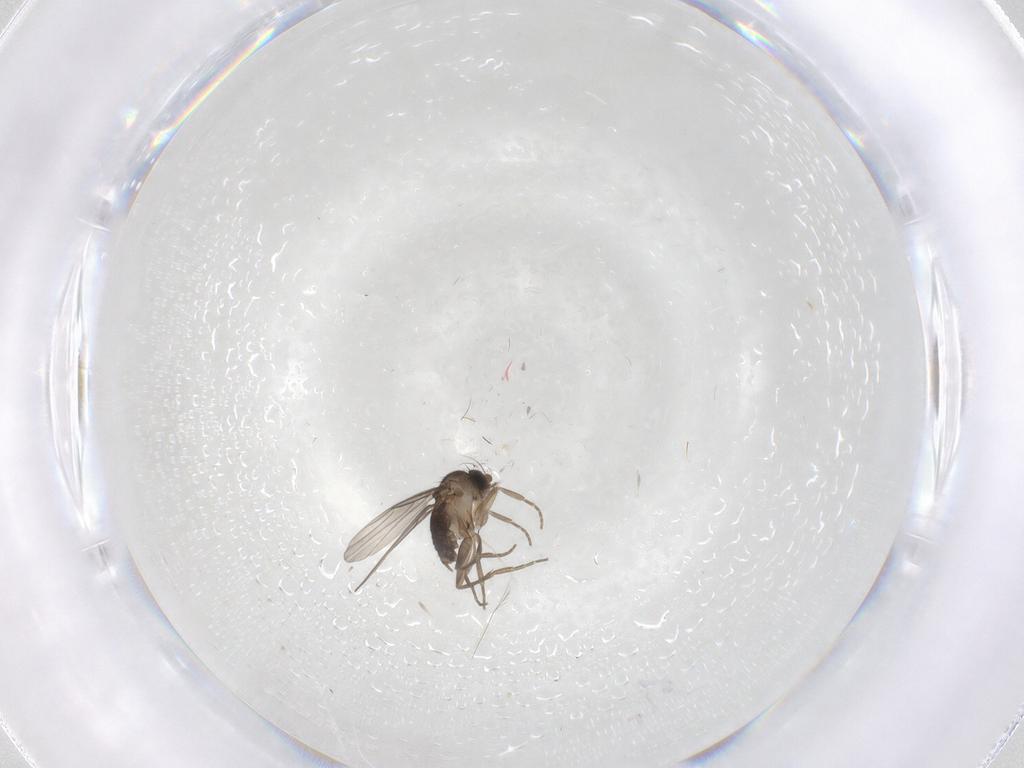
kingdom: Animalia
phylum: Arthropoda
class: Insecta
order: Diptera
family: Phoridae
